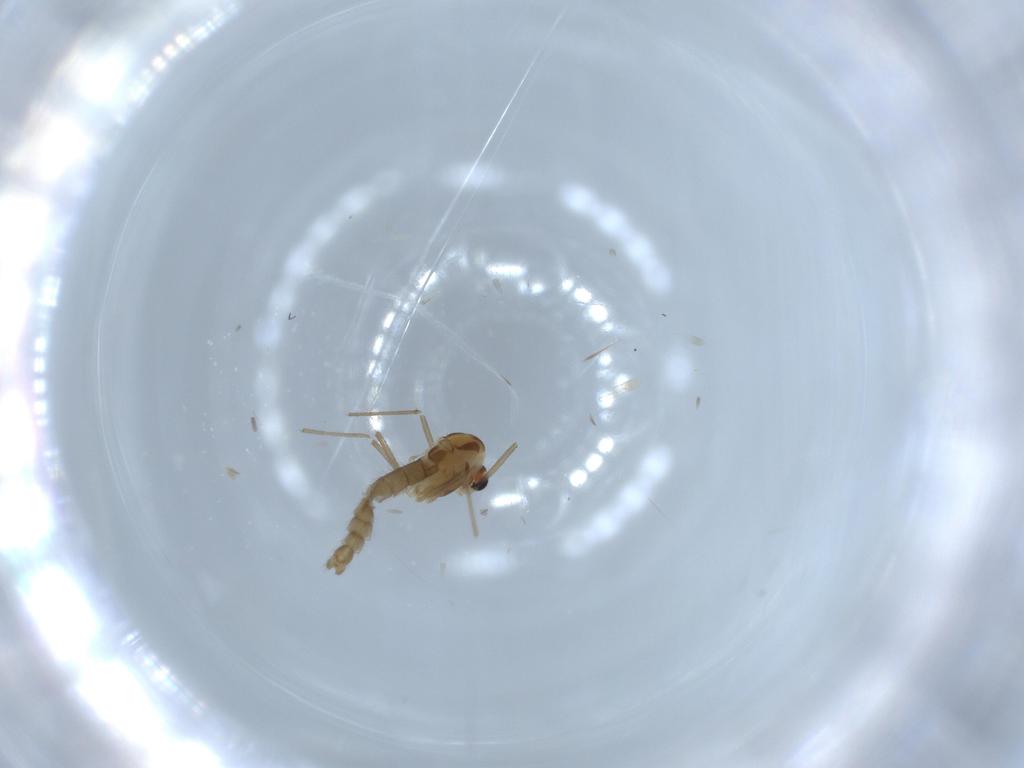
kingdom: Animalia
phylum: Arthropoda
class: Insecta
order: Diptera
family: Chironomidae
